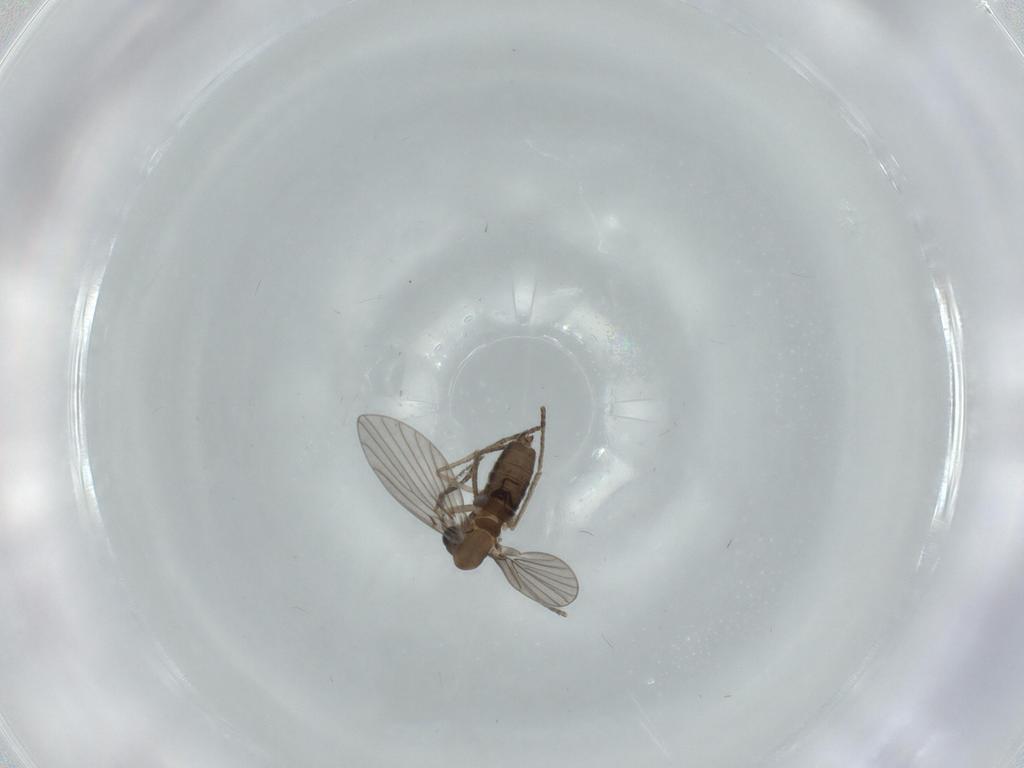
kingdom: Animalia
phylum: Arthropoda
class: Insecta
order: Diptera
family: Psychodidae
